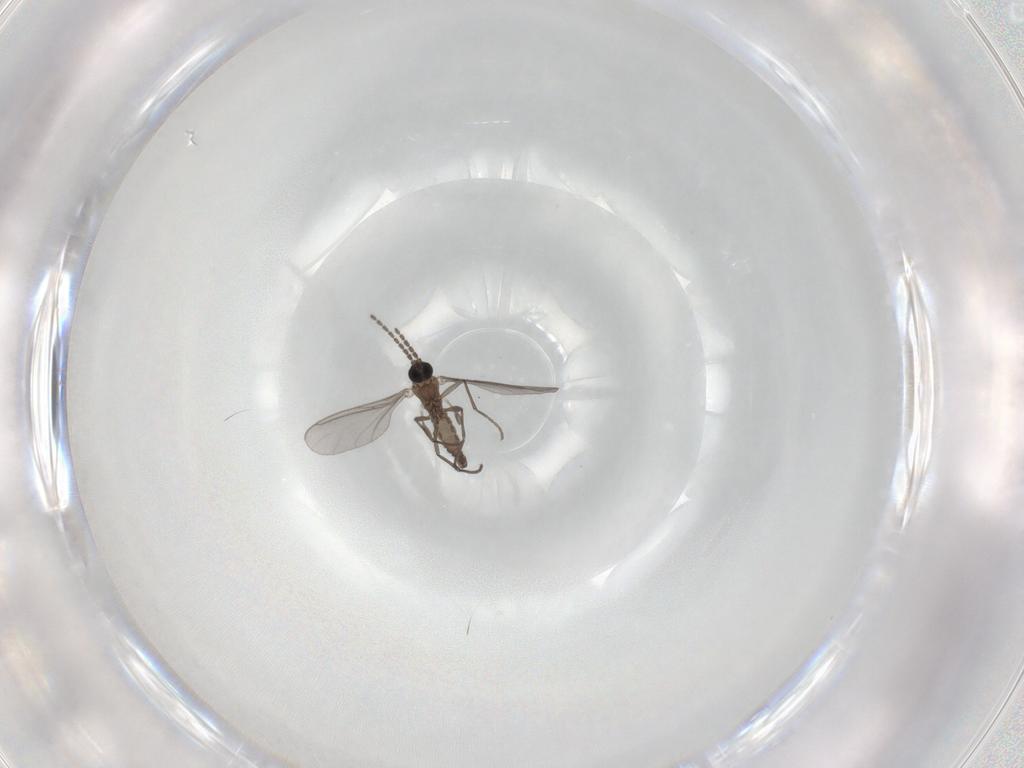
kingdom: Animalia
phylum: Arthropoda
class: Insecta
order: Diptera
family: Sciaridae
